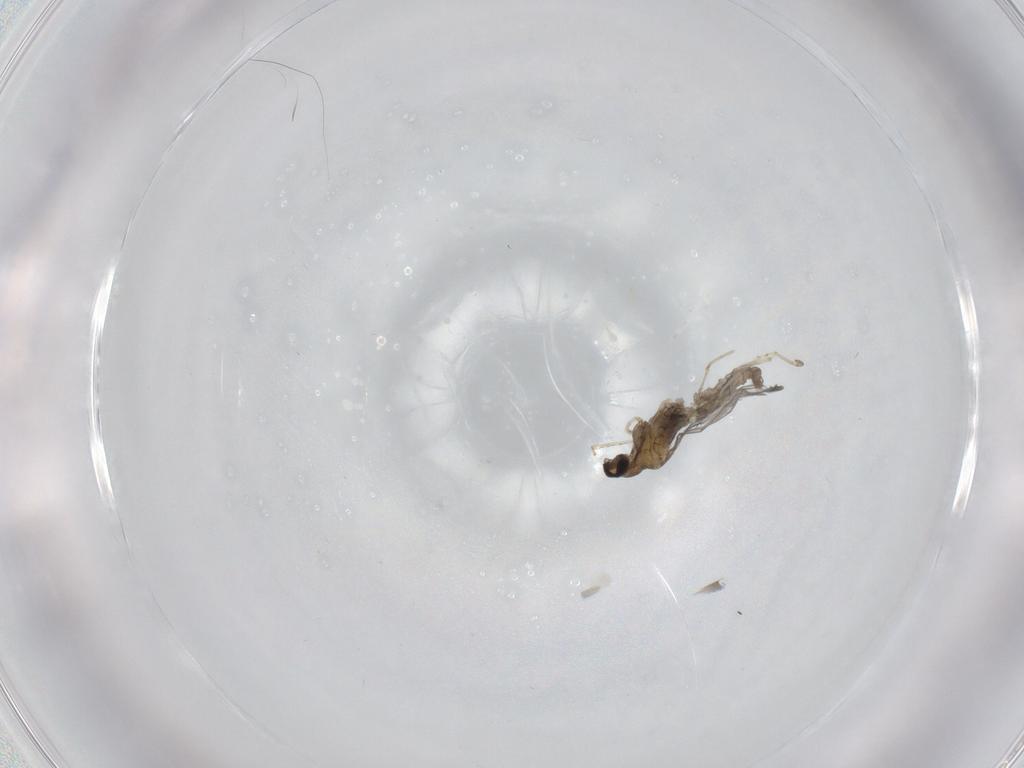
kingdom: Animalia
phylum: Arthropoda
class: Insecta
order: Diptera
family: Cecidomyiidae
